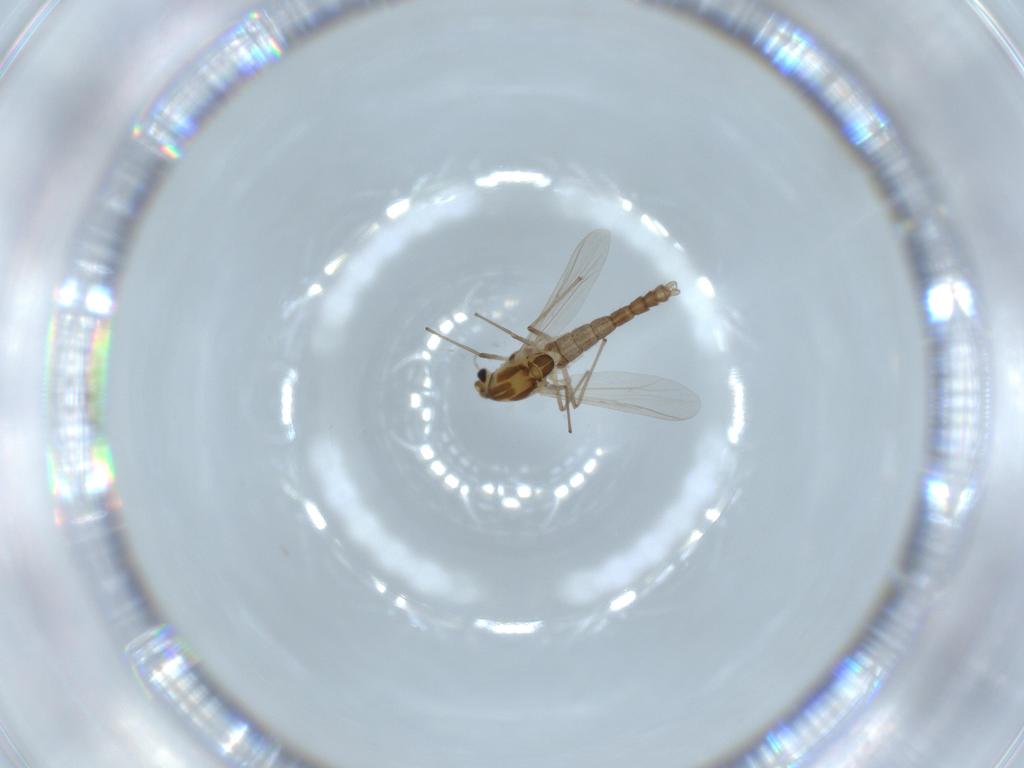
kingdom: Animalia
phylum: Arthropoda
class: Insecta
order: Diptera
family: Chironomidae
